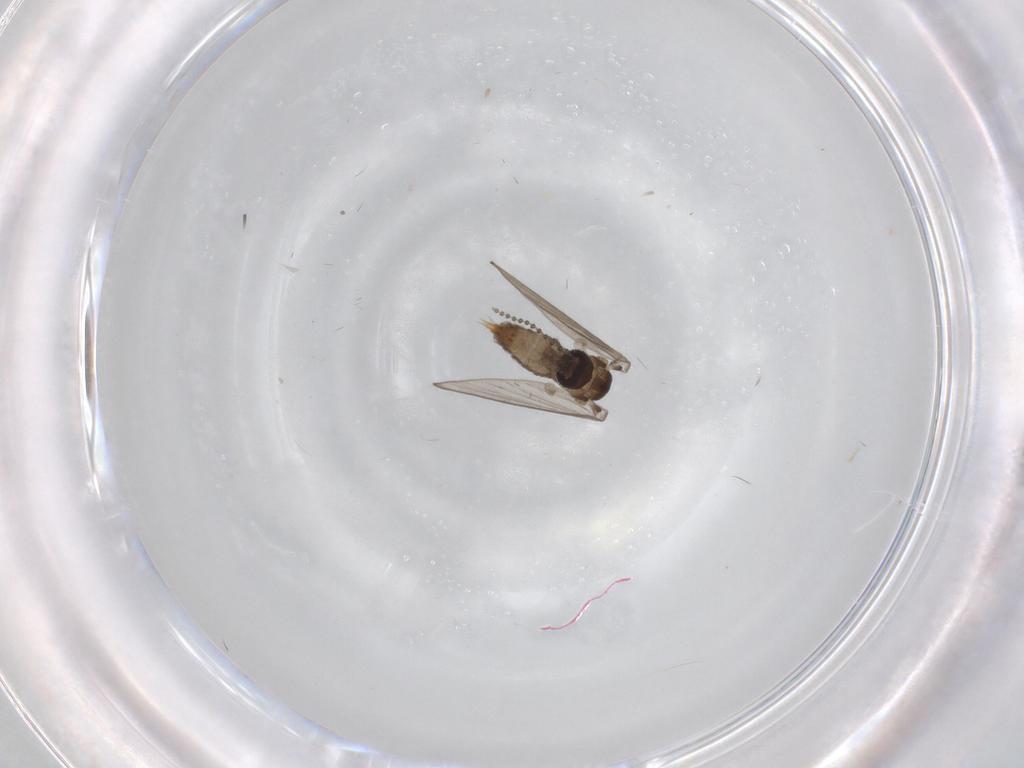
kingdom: Animalia
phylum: Arthropoda
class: Insecta
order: Diptera
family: Psychodidae
